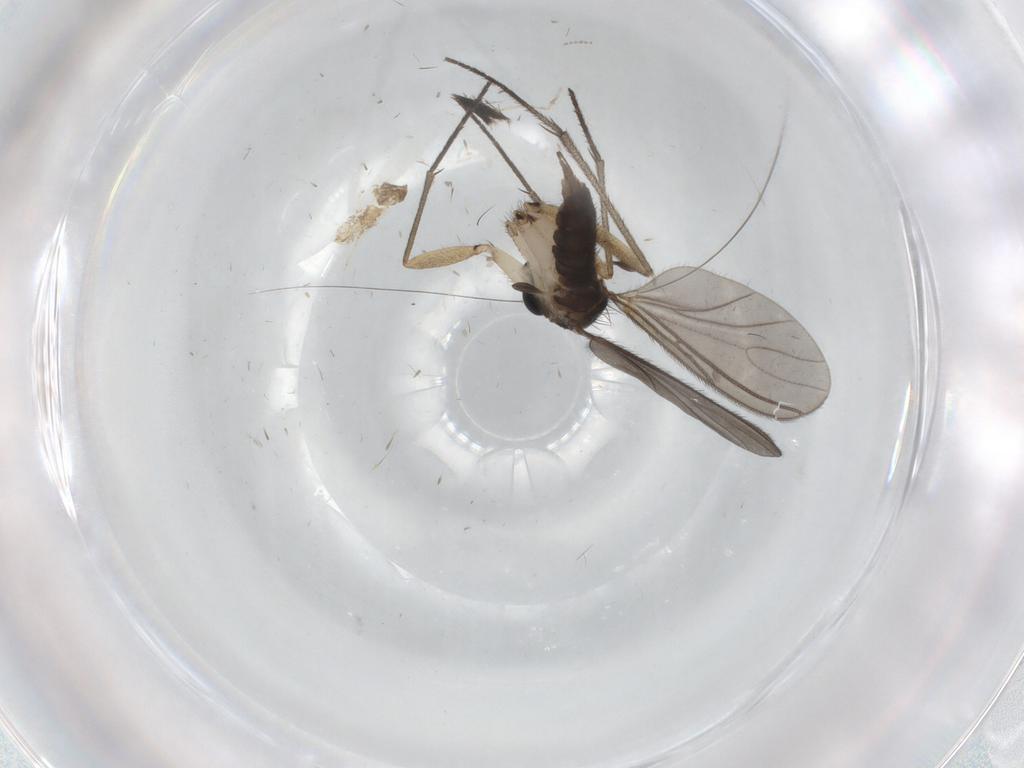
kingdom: Animalia
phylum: Arthropoda
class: Insecta
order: Diptera
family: Sciaridae
